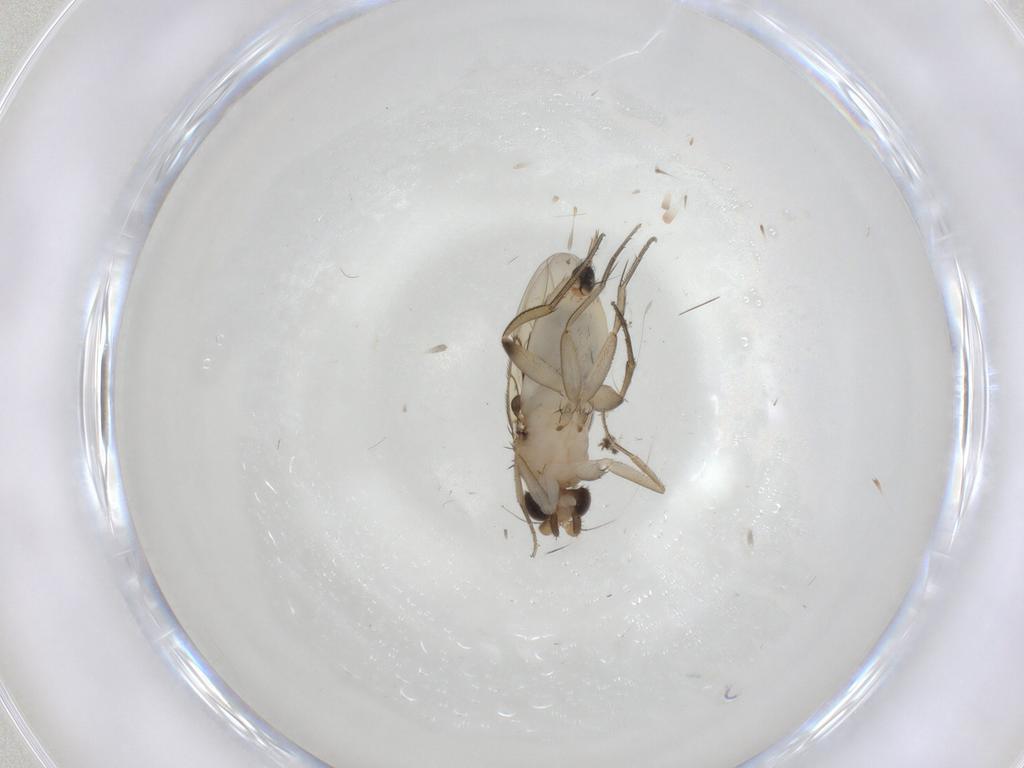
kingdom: Animalia
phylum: Arthropoda
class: Insecta
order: Diptera
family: Phoridae
